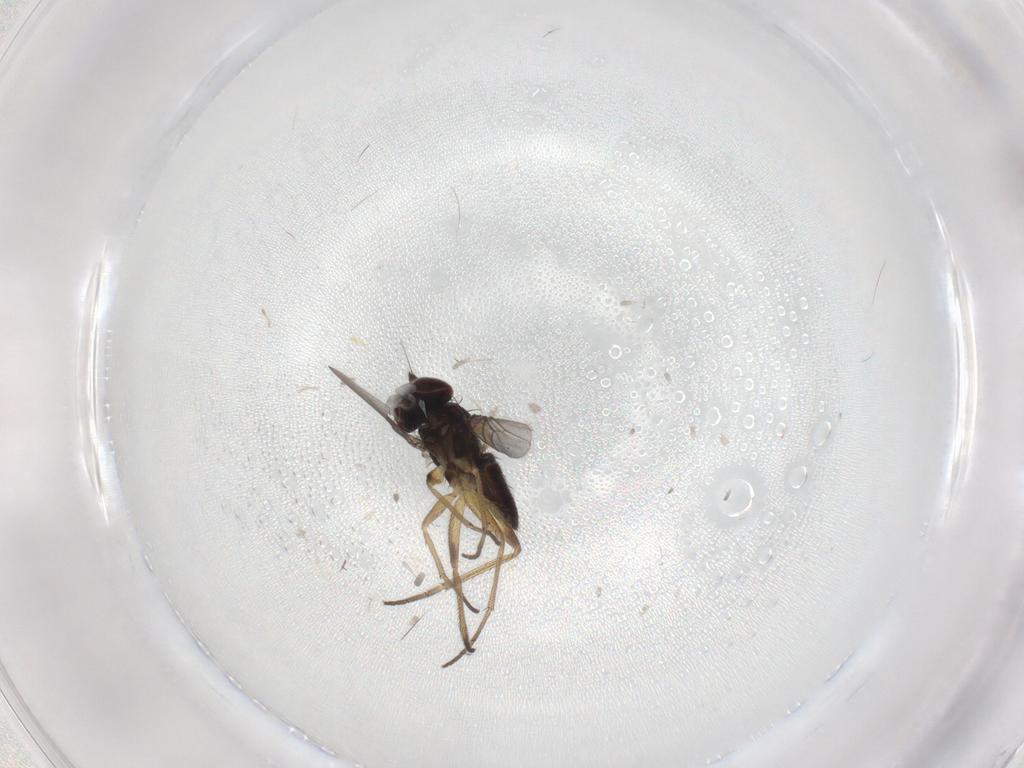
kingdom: Animalia
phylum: Arthropoda
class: Insecta
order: Diptera
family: Dolichopodidae
